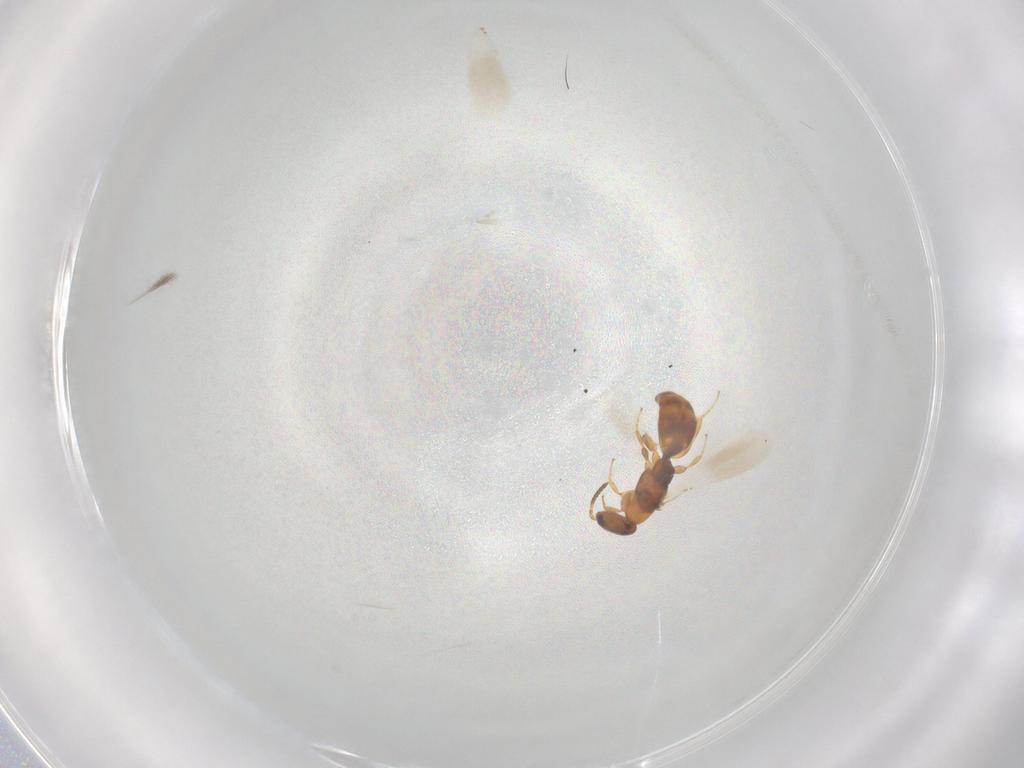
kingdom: Animalia
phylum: Arthropoda
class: Insecta
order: Hymenoptera
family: Bethylidae
